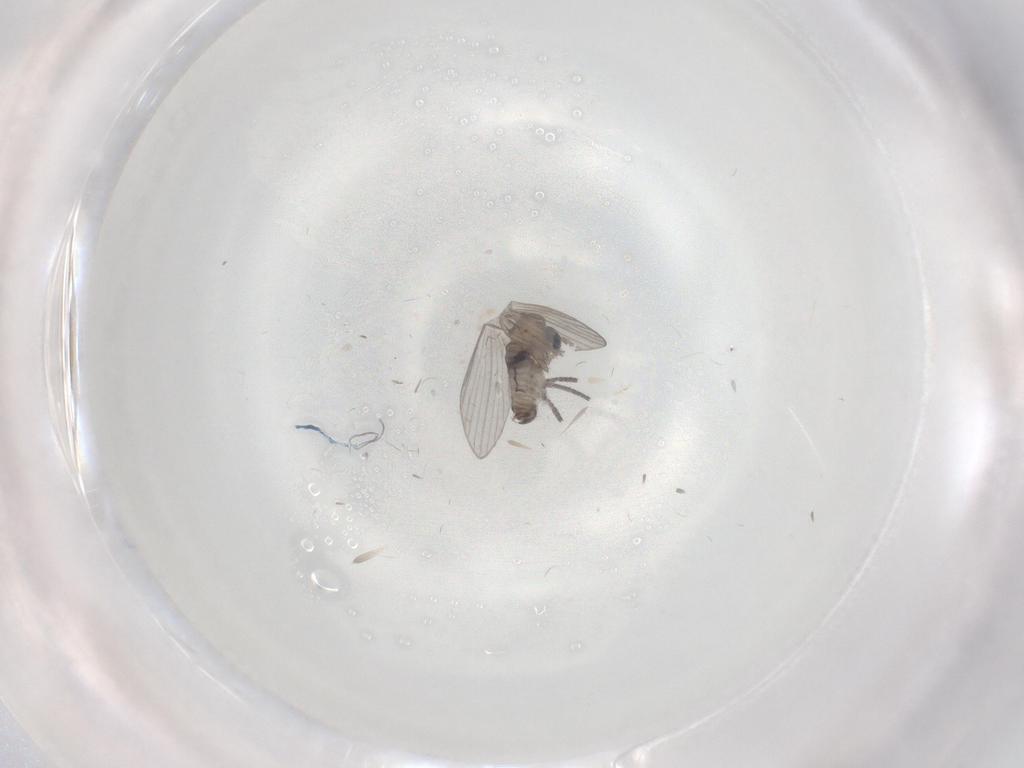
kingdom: Animalia
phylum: Arthropoda
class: Insecta
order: Diptera
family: Psychodidae
